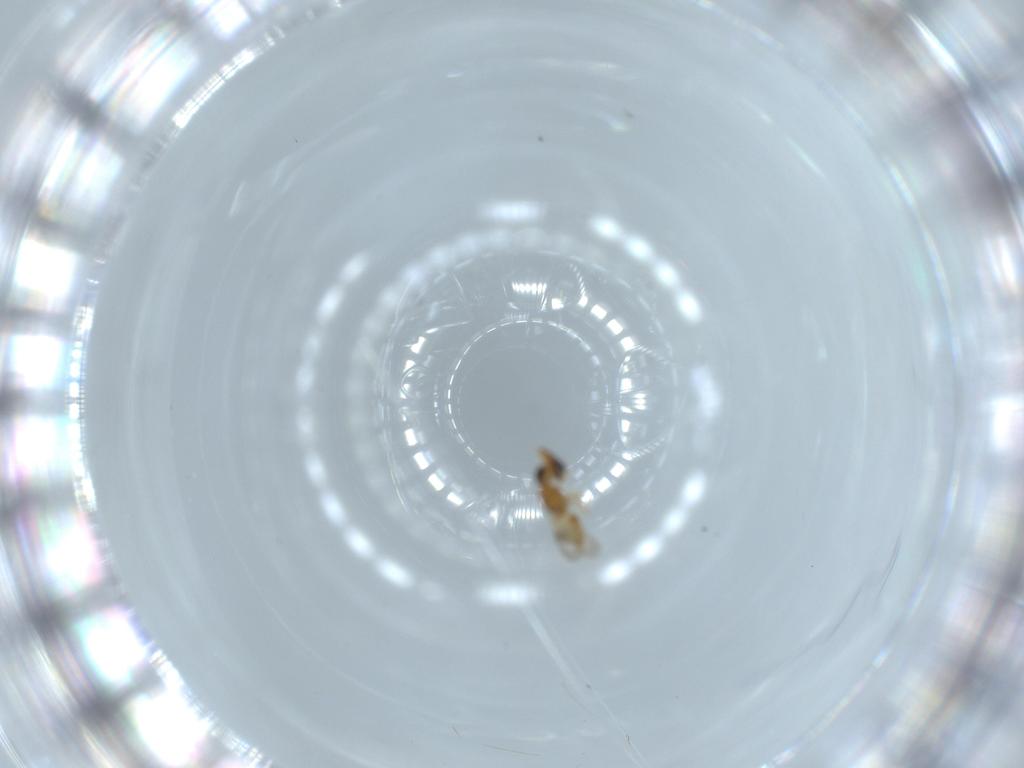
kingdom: Animalia
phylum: Arthropoda
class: Insecta
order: Hymenoptera
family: Ceraphronidae
